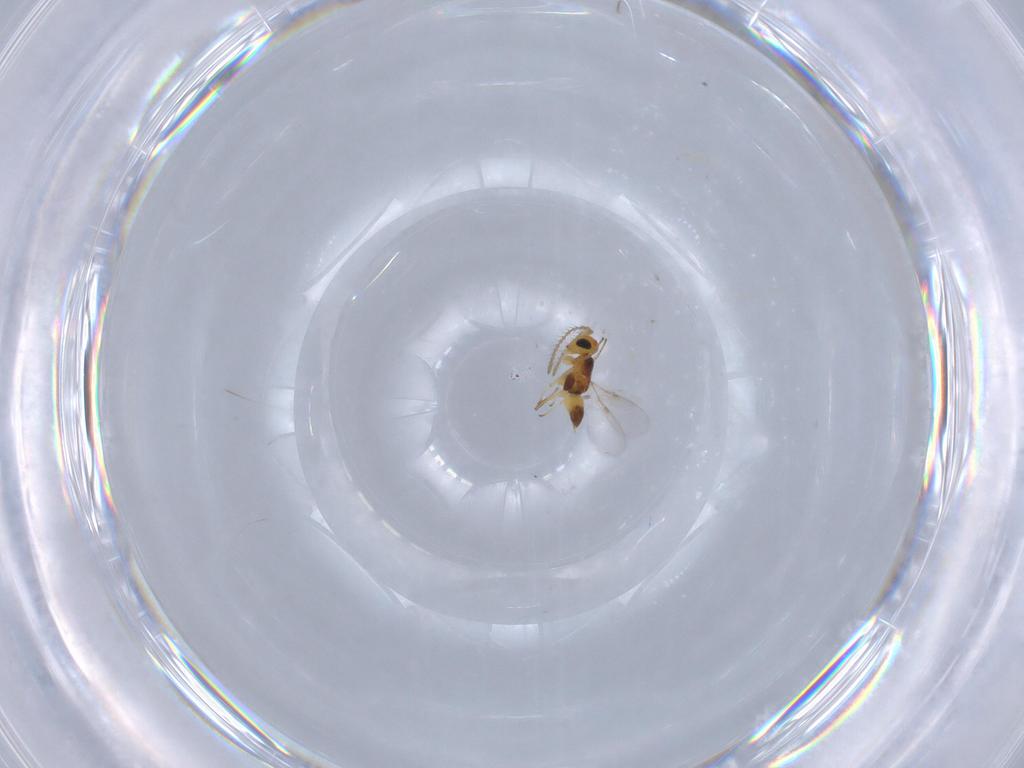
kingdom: Animalia
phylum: Arthropoda
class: Insecta
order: Hymenoptera
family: Encyrtidae
